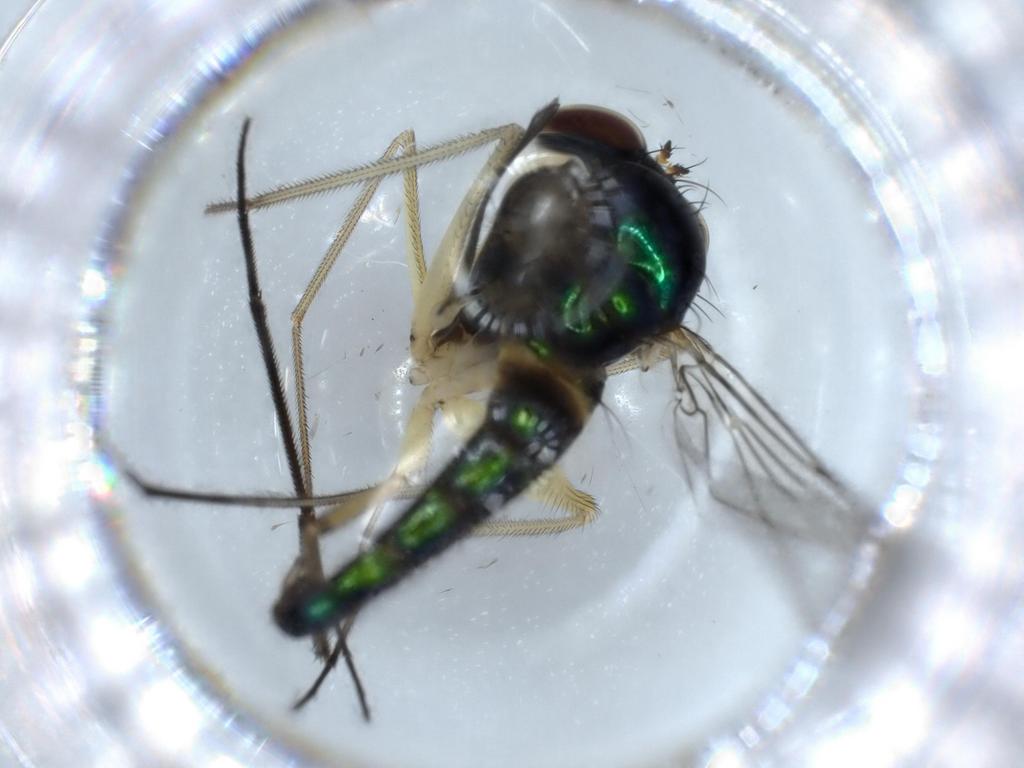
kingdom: Animalia
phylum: Arthropoda
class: Insecta
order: Diptera
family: Dolichopodidae
